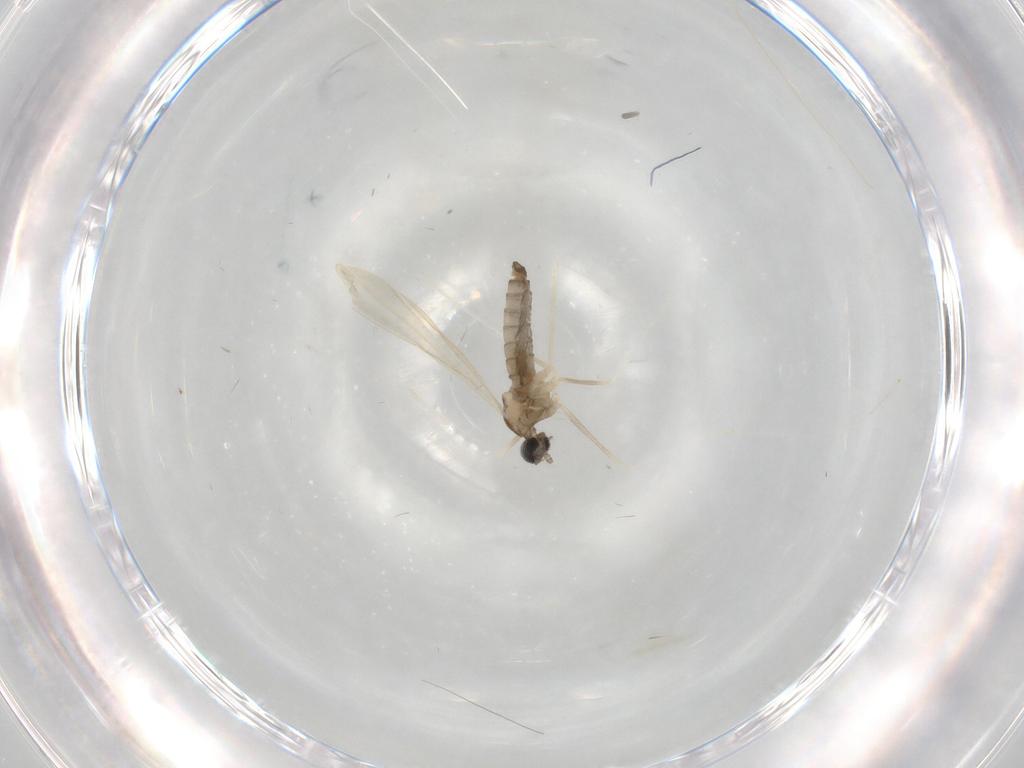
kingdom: Animalia
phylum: Arthropoda
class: Insecta
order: Diptera
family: Cecidomyiidae
